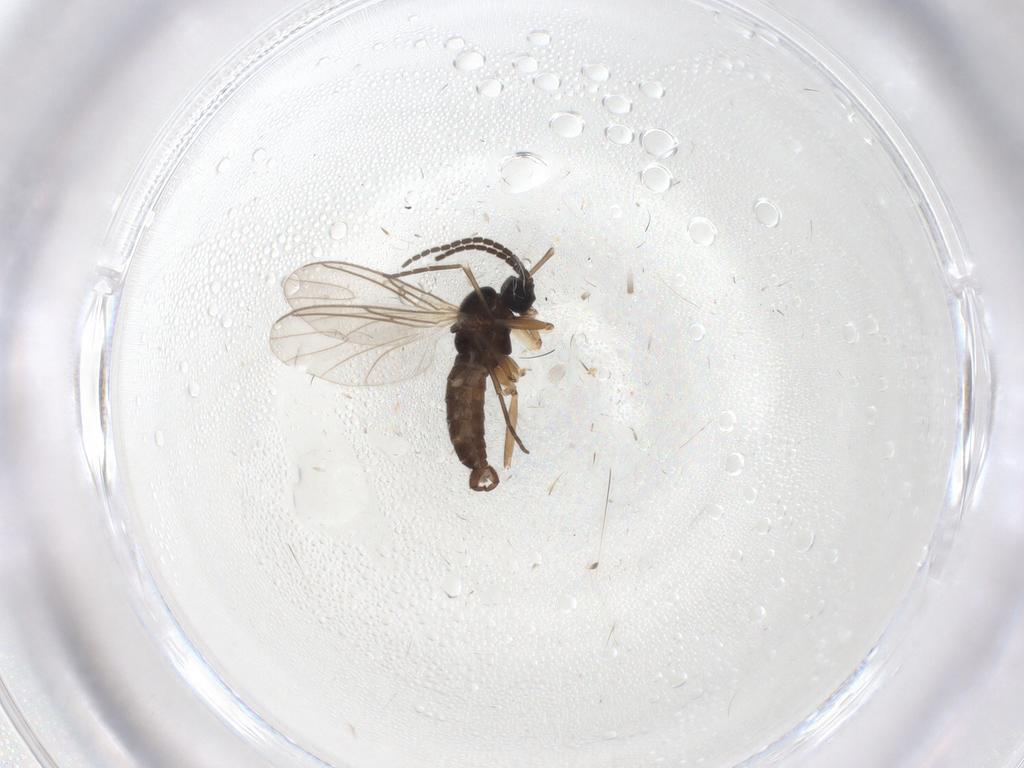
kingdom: Animalia
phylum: Arthropoda
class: Insecta
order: Diptera
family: Sciaridae
